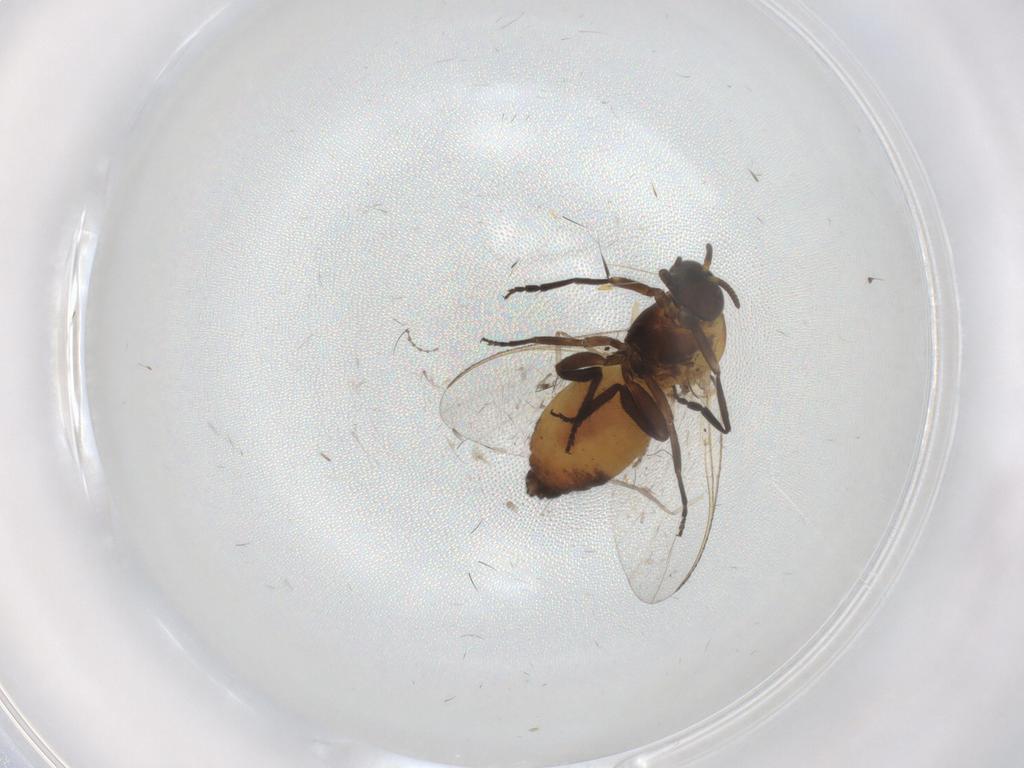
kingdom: Animalia
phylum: Arthropoda
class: Insecta
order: Diptera
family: Cecidomyiidae
